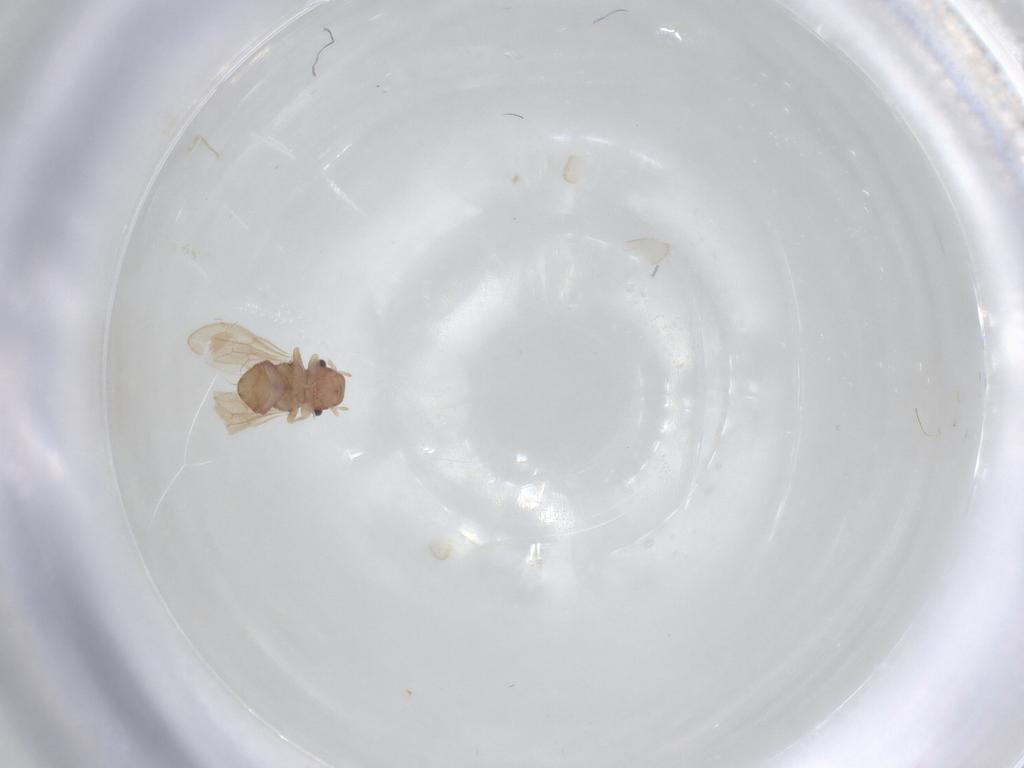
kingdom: Animalia
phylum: Arthropoda
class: Insecta
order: Psocodea
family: Archipsocidae
